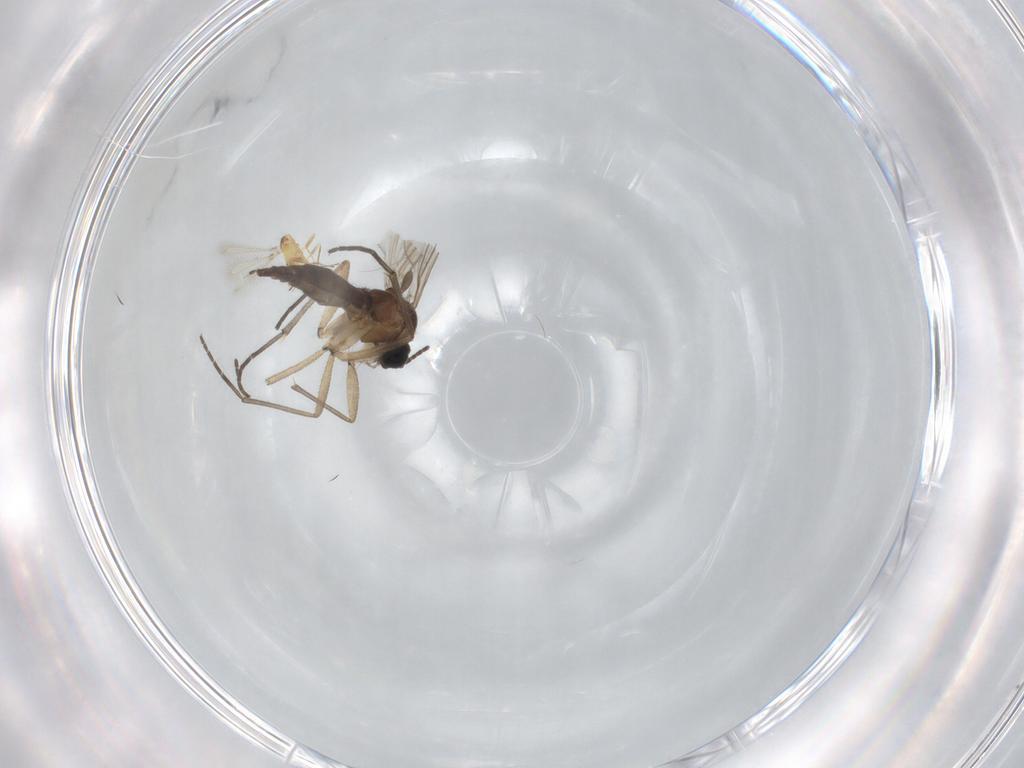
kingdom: Animalia
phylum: Arthropoda
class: Insecta
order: Diptera
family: Sciaridae
